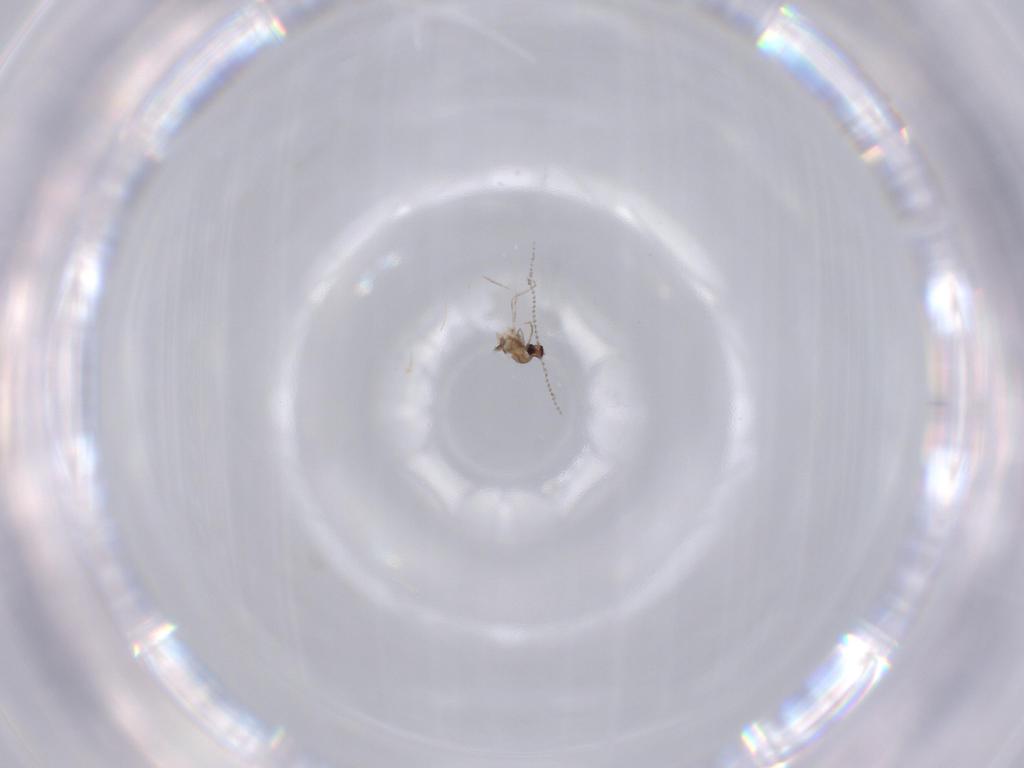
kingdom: Animalia
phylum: Arthropoda
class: Insecta
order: Diptera
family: Cecidomyiidae
